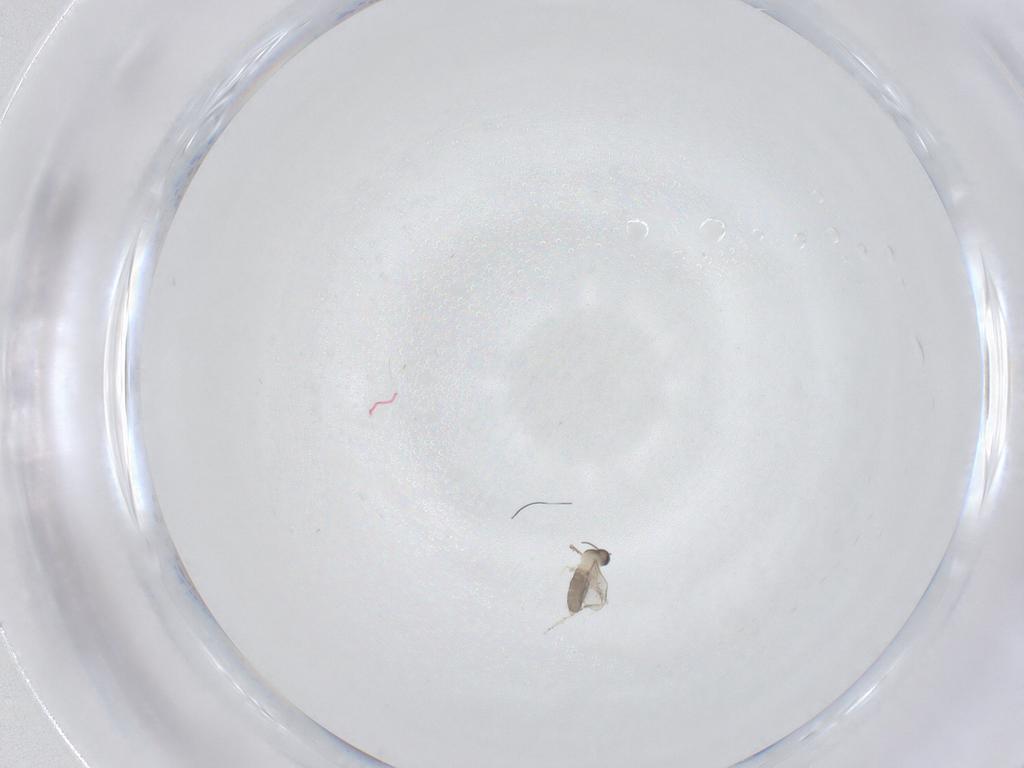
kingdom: Animalia
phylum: Arthropoda
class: Insecta
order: Diptera
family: Cecidomyiidae
